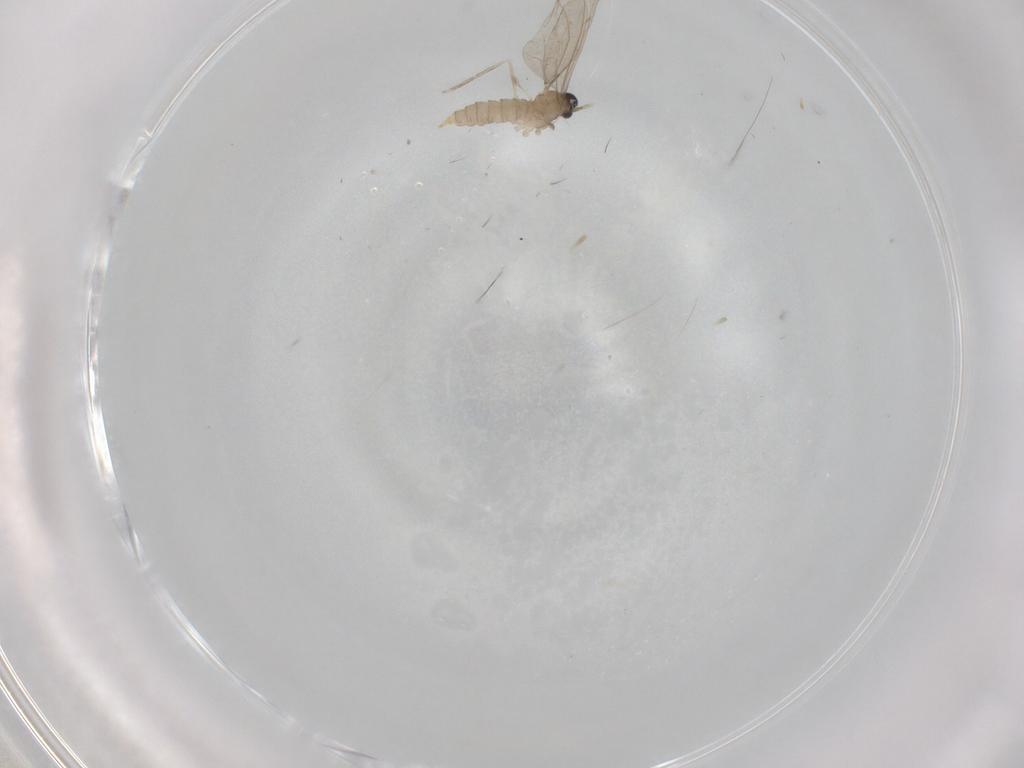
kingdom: Animalia
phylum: Arthropoda
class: Insecta
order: Diptera
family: Cecidomyiidae
